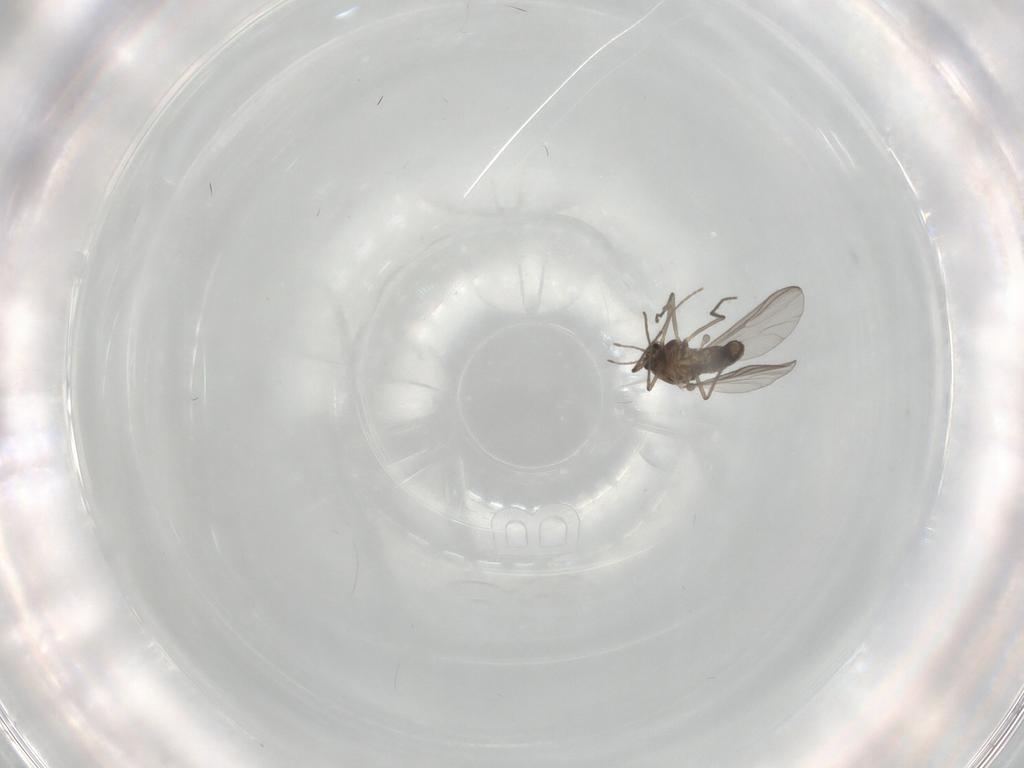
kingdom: Animalia
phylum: Arthropoda
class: Insecta
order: Diptera
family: Chironomidae
